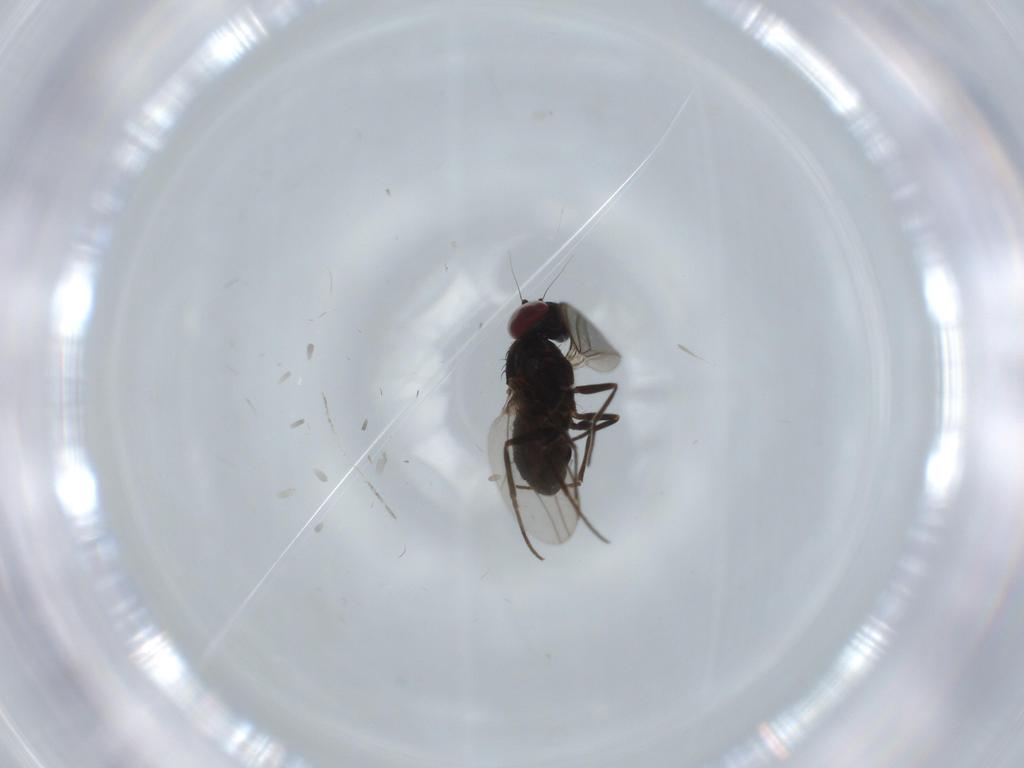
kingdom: Animalia
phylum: Arthropoda
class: Insecta
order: Diptera
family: Dolichopodidae
